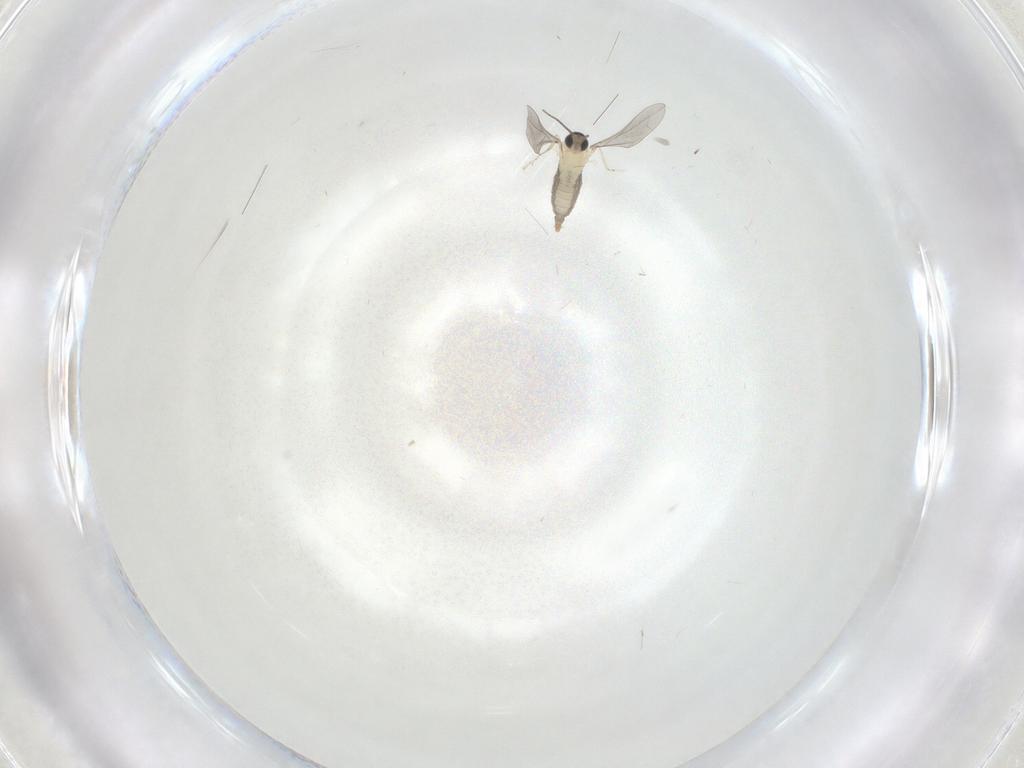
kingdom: Animalia
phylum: Arthropoda
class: Insecta
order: Diptera
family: Cecidomyiidae
